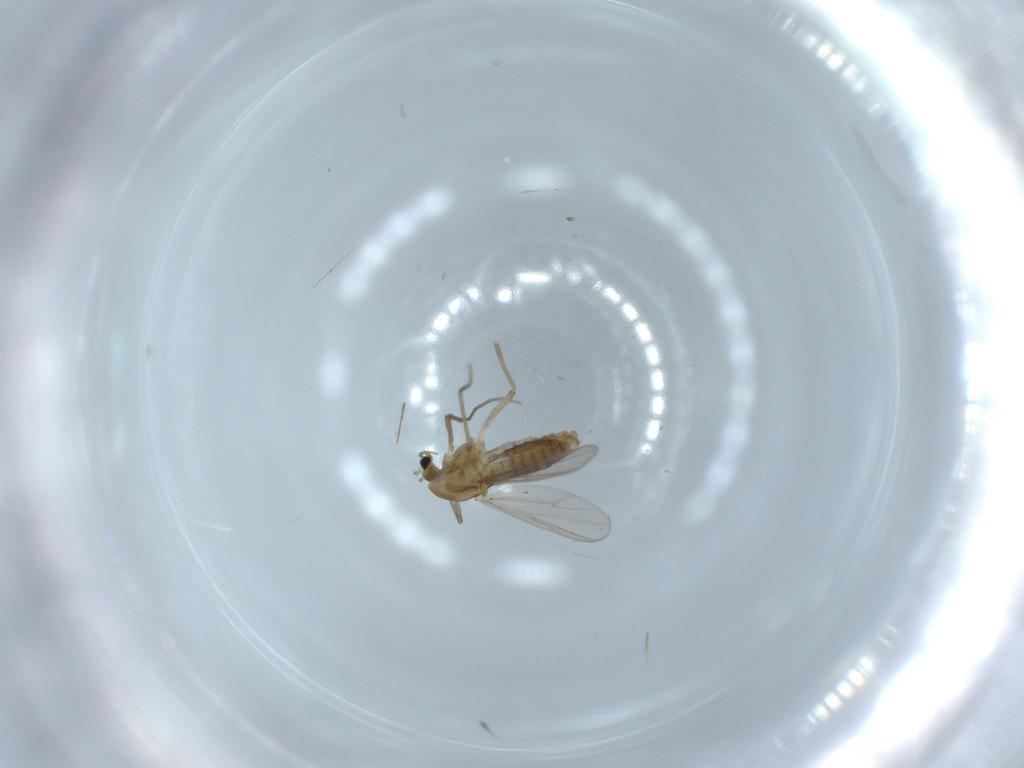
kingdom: Animalia
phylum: Arthropoda
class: Insecta
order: Diptera
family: Chironomidae
